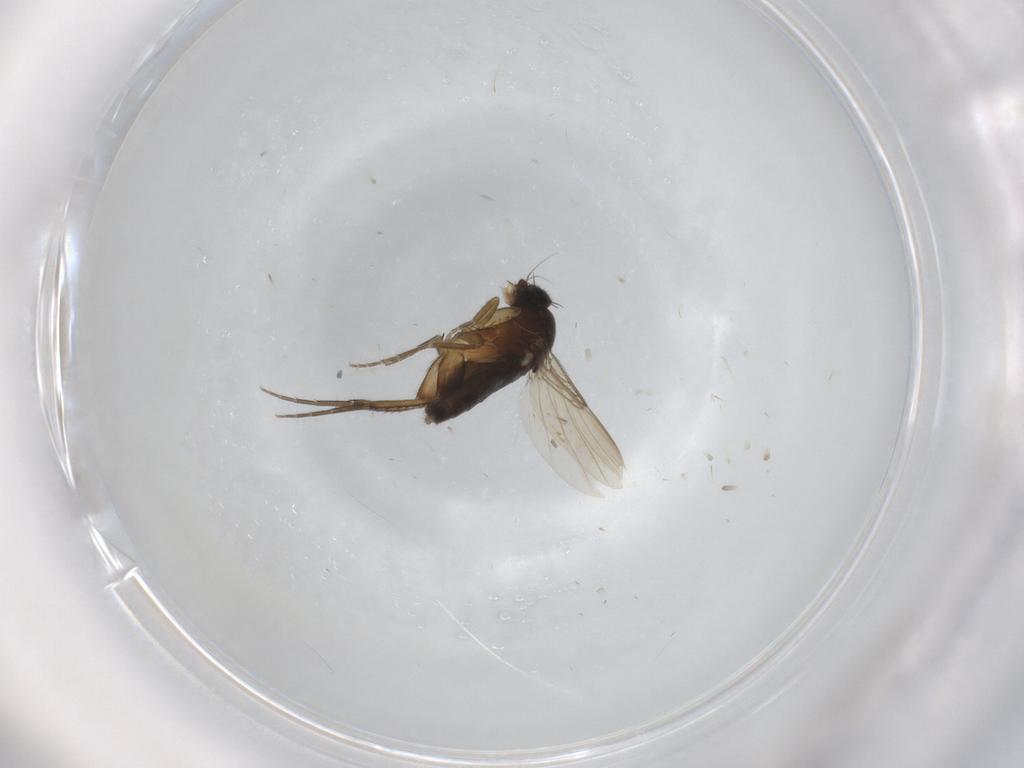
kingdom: Animalia
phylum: Arthropoda
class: Insecta
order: Diptera
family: Phoridae
